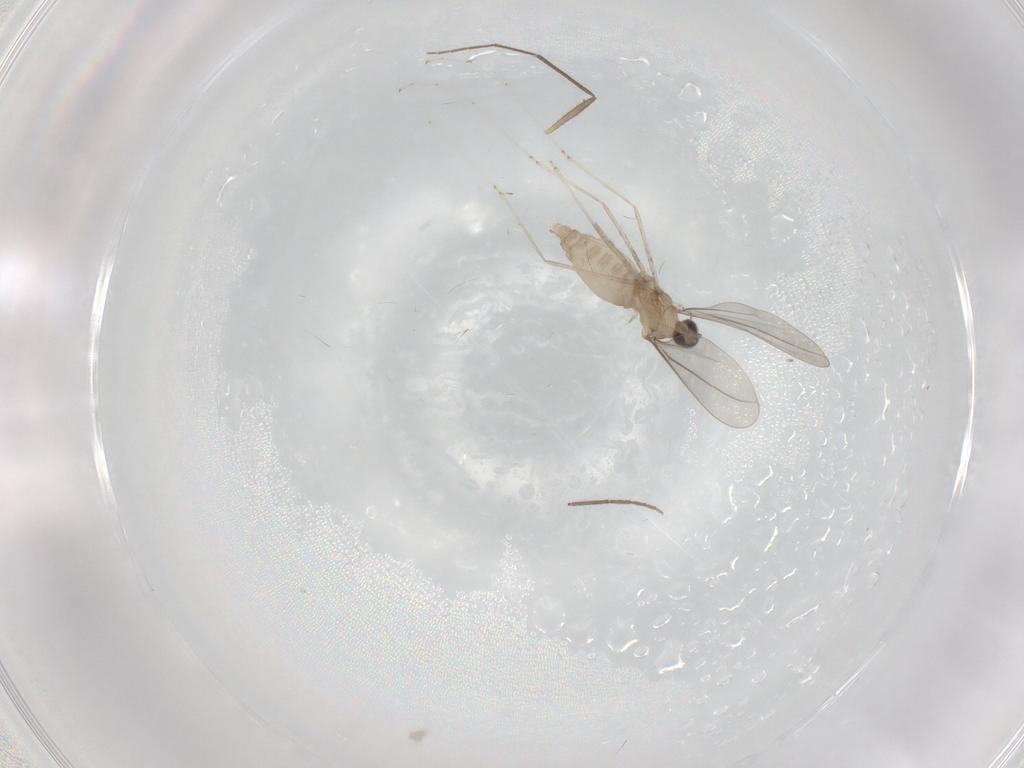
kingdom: Animalia
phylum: Arthropoda
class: Insecta
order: Diptera
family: Cecidomyiidae
